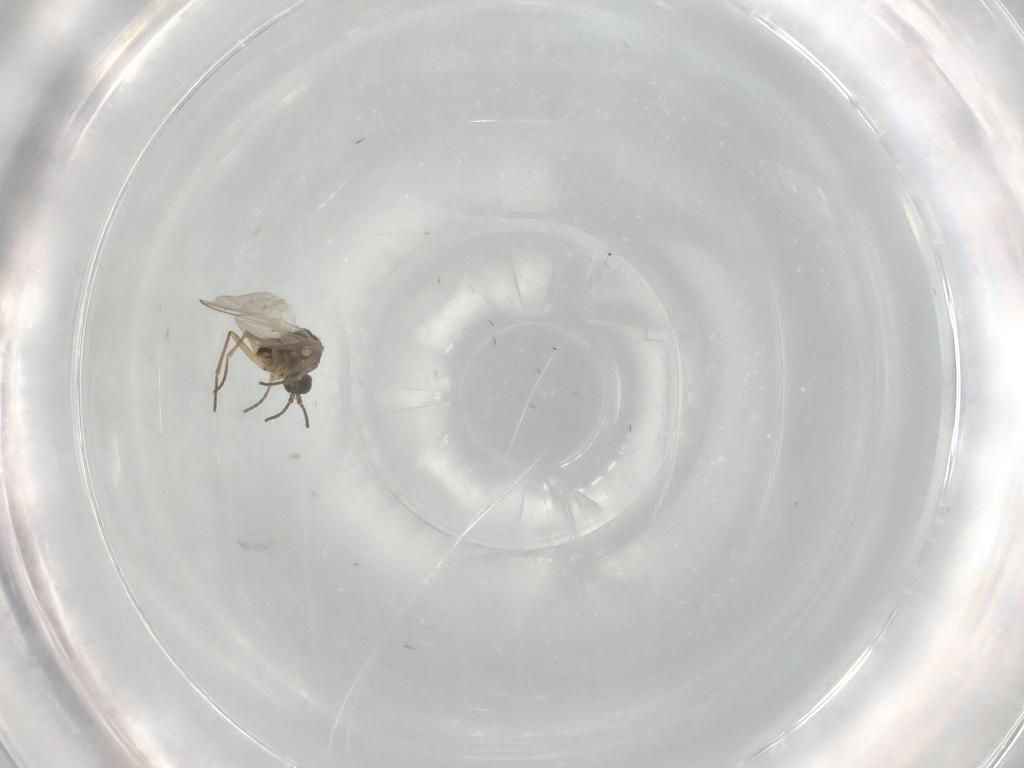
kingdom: Animalia
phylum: Arthropoda
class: Insecta
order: Diptera
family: Sciaridae
